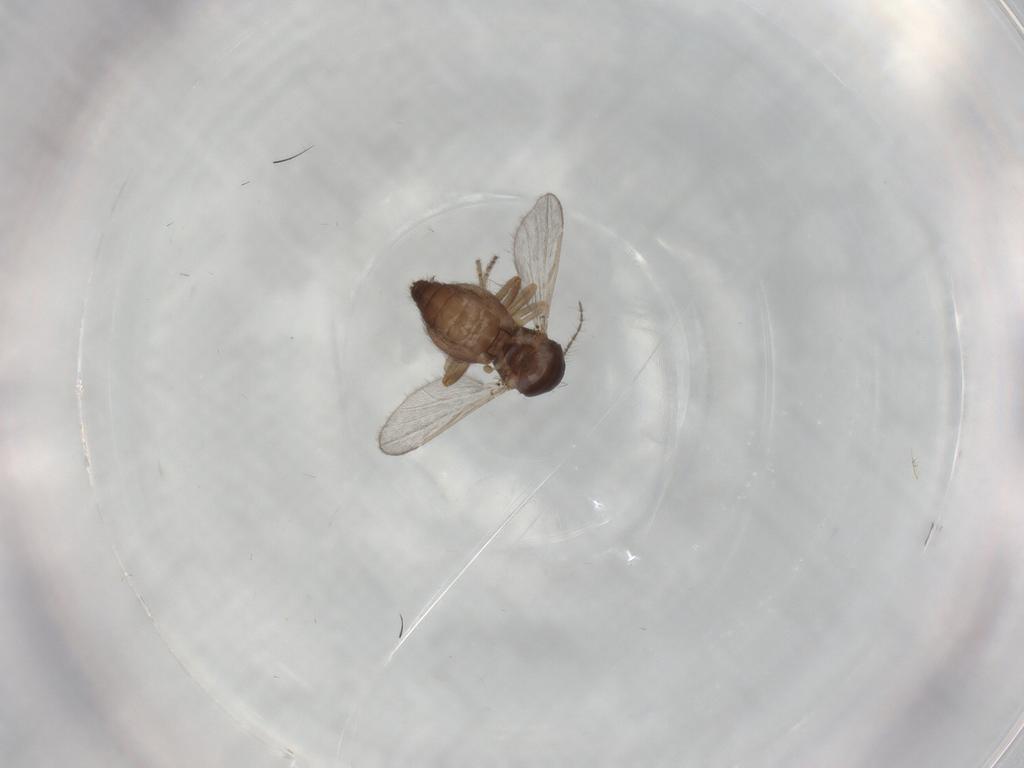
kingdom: Animalia
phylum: Arthropoda
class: Insecta
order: Diptera
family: Ceratopogonidae
